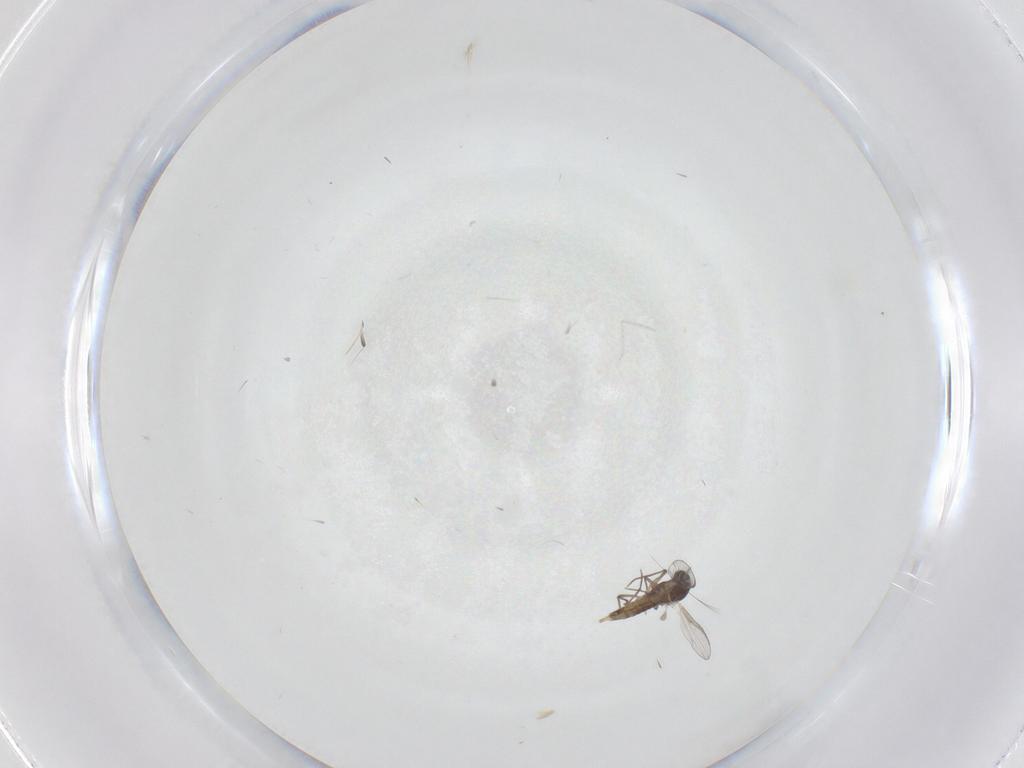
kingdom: Animalia
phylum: Arthropoda
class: Insecta
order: Diptera
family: Chironomidae
